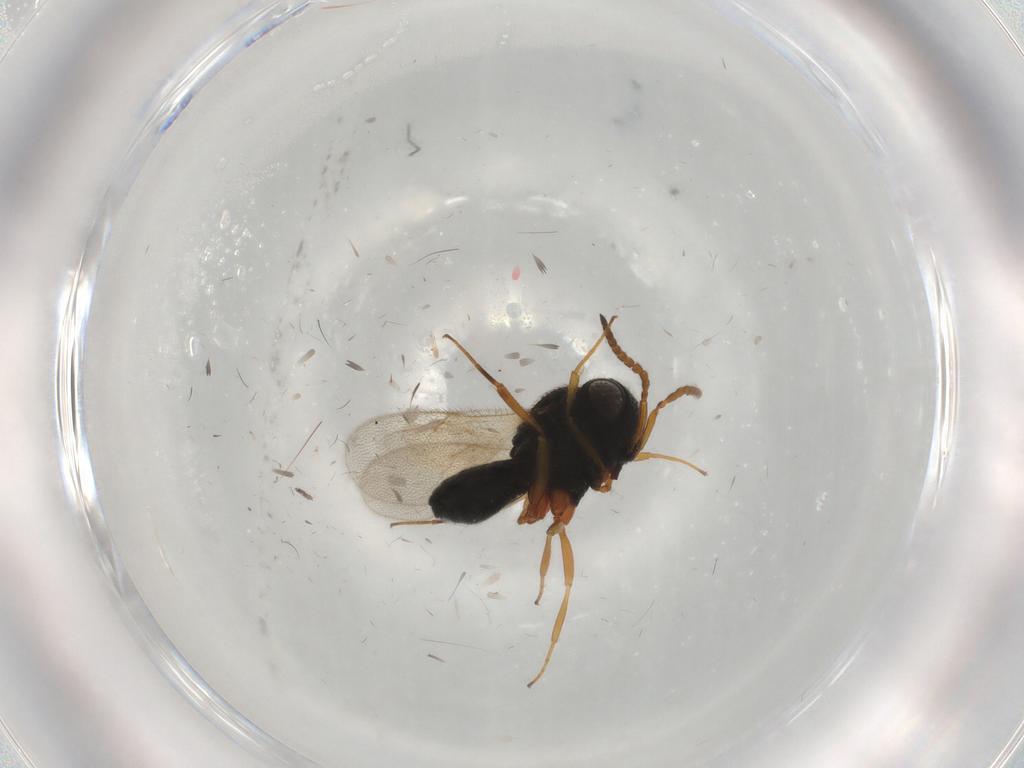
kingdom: Animalia
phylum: Arthropoda
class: Insecta
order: Hymenoptera
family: Scelionidae
